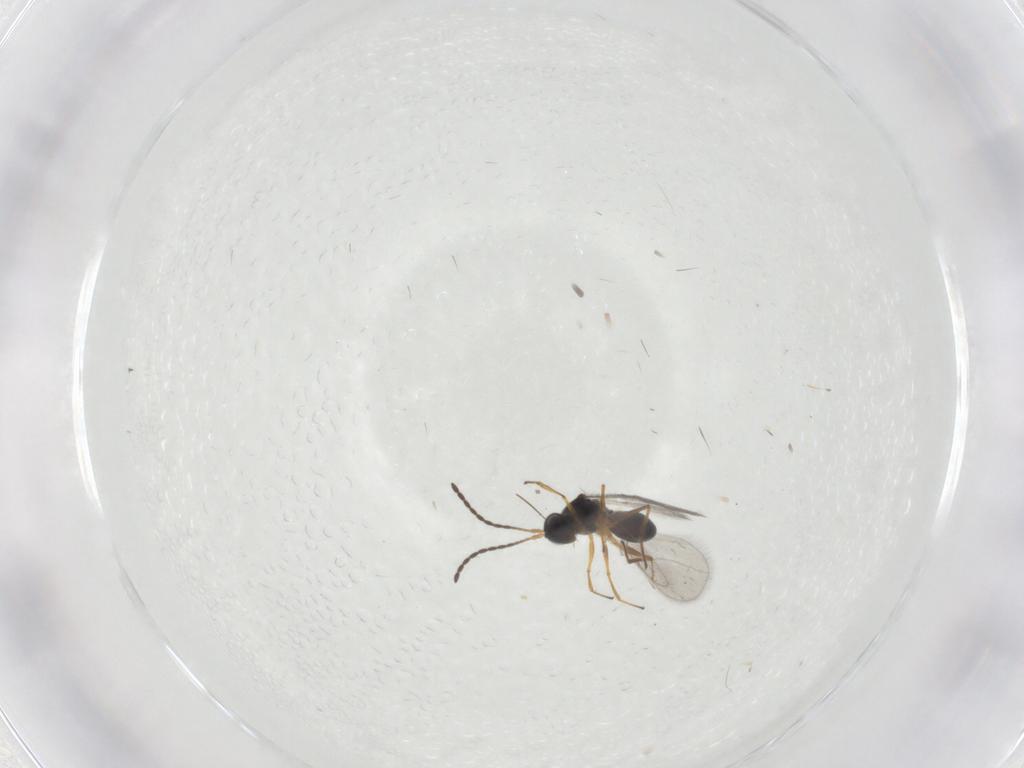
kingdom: Animalia
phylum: Arthropoda
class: Insecta
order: Hymenoptera
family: Figitidae
